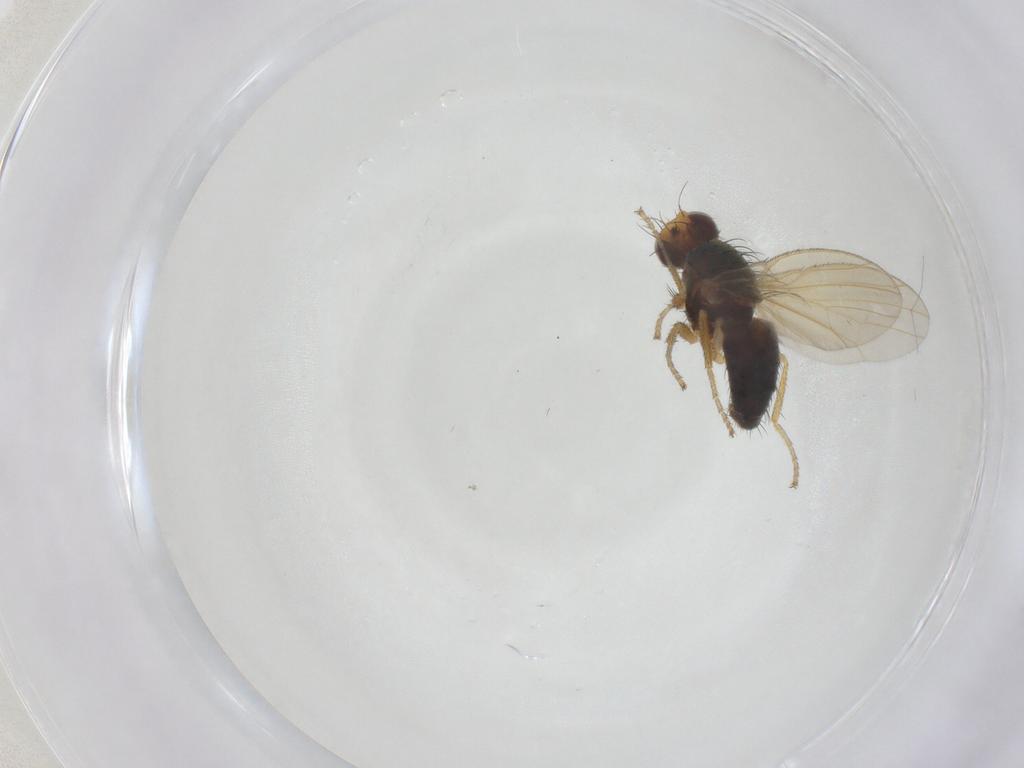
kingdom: Animalia
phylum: Arthropoda
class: Insecta
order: Diptera
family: Heleomyzidae
